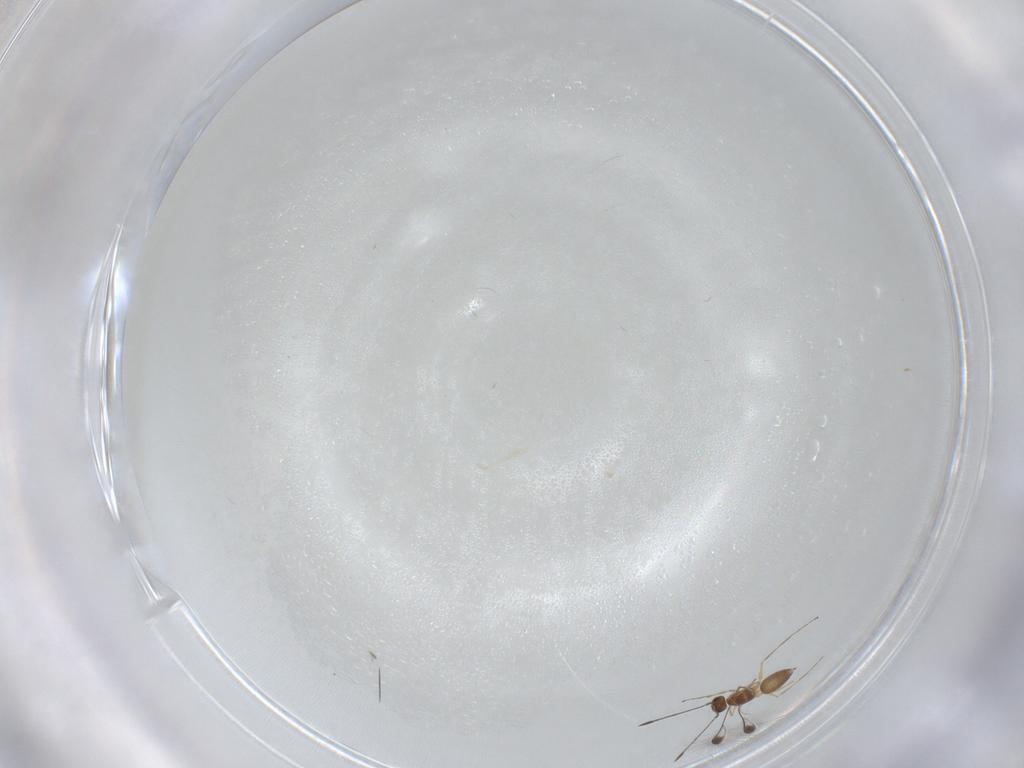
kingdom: Animalia
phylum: Arthropoda
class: Insecta
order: Hymenoptera
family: Mymaridae
